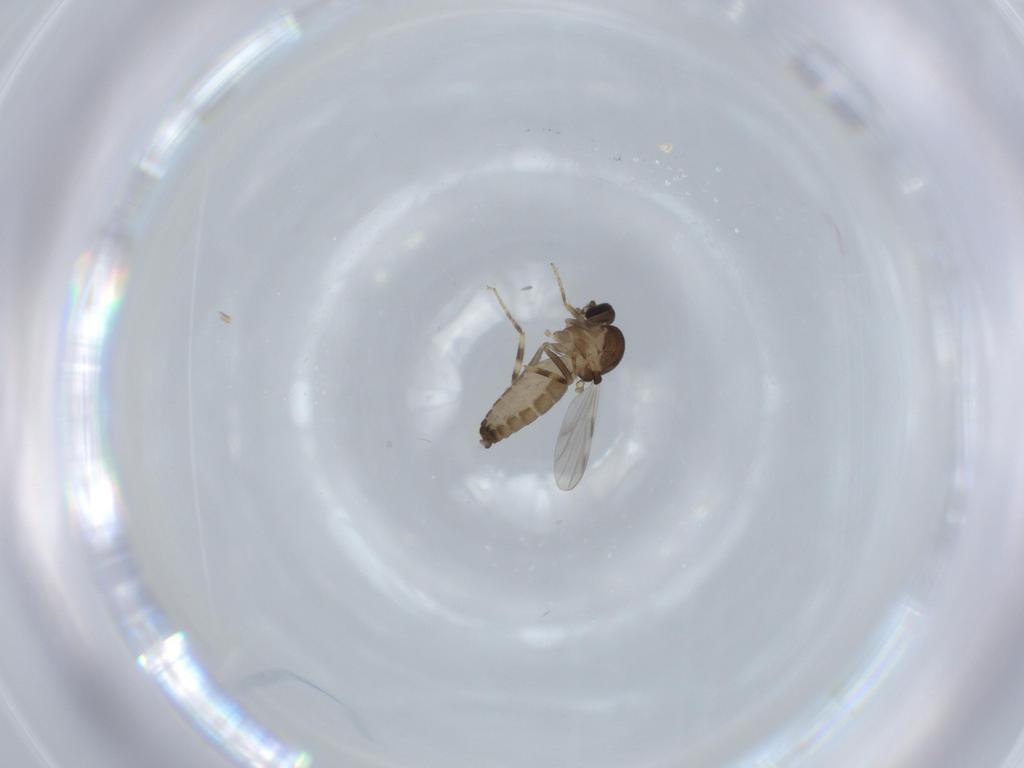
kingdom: Animalia
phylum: Arthropoda
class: Insecta
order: Diptera
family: Ceratopogonidae
